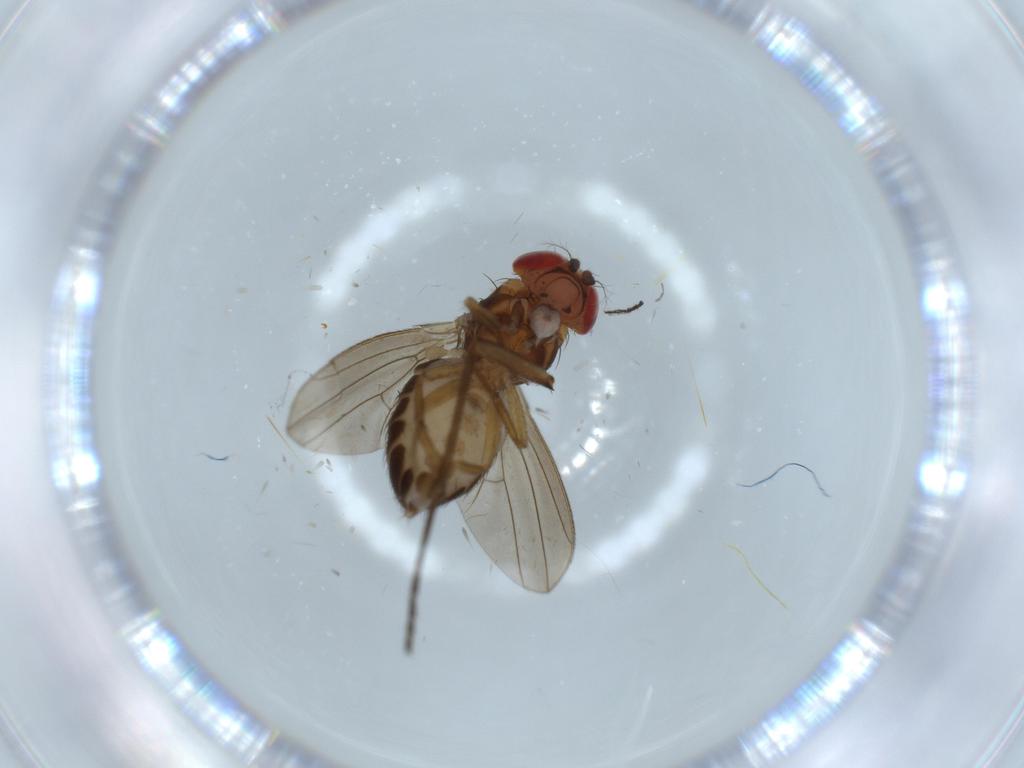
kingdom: Animalia
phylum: Arthropoda
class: Insecta
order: Diptera
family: Drosophilidae
